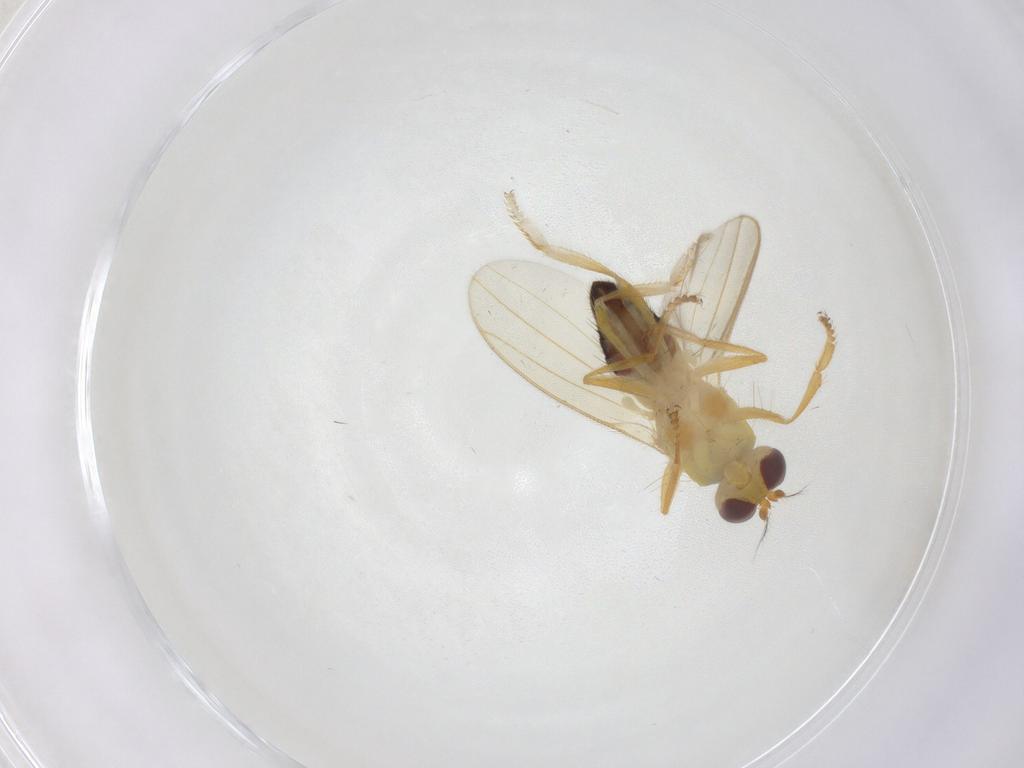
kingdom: Animalia
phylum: Arthropoda
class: Insecta
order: Diptera
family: Periscelididae
